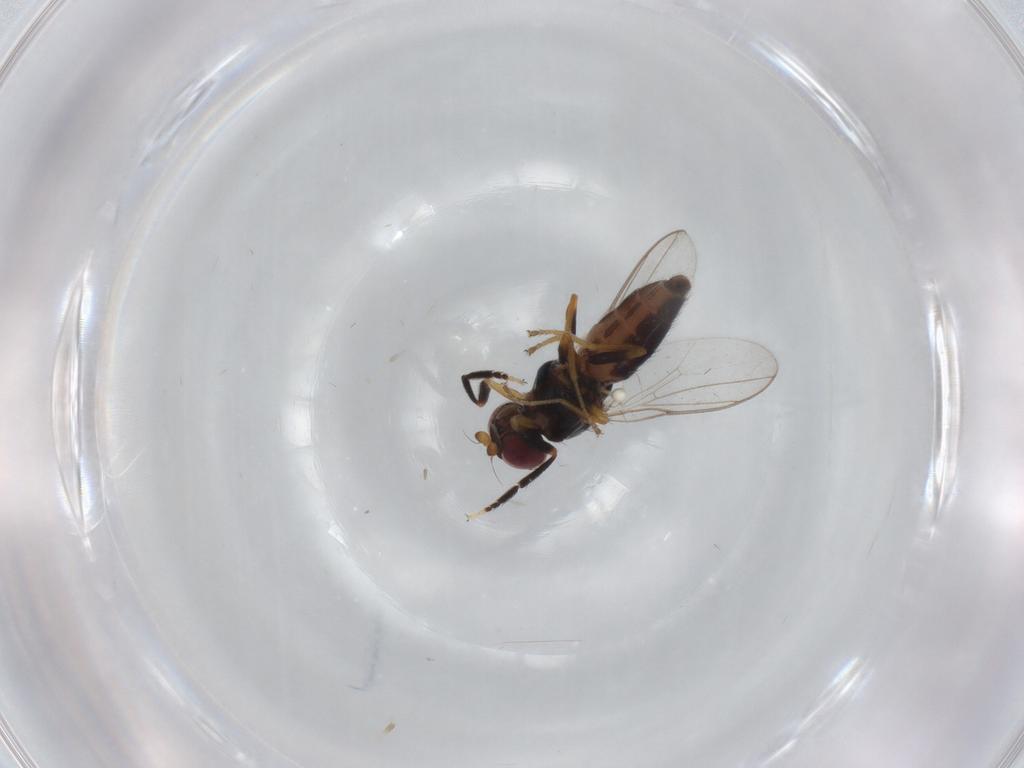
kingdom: Animalia
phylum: Arthropoda
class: Insecta
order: Diptera
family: Chloropidae
